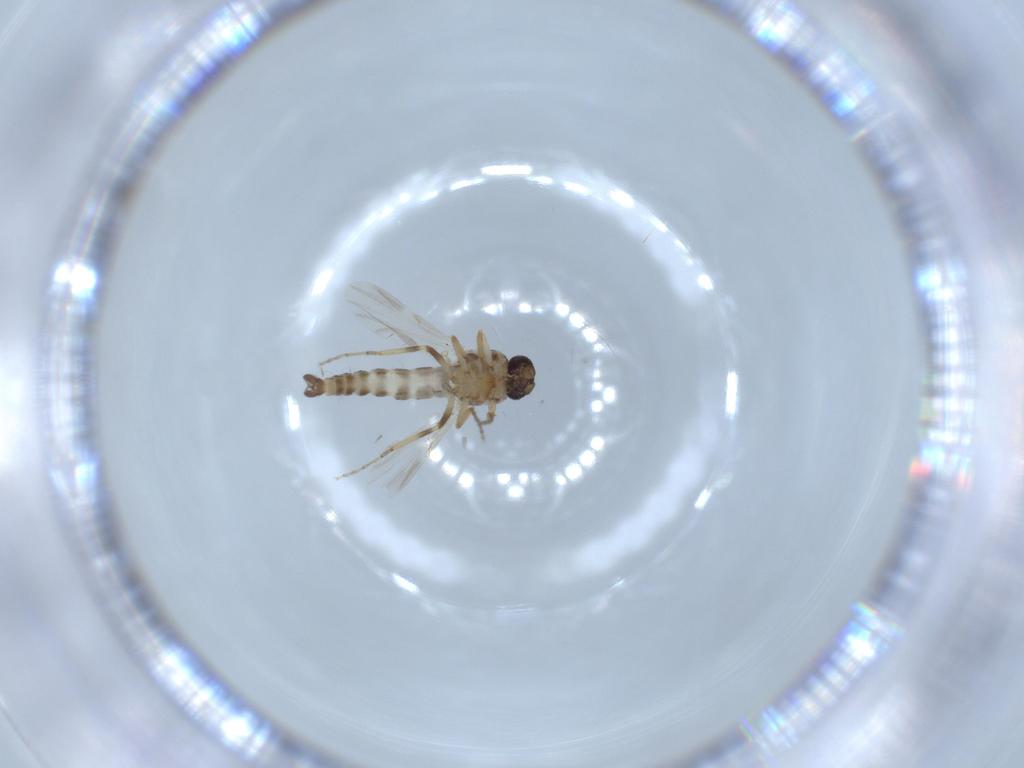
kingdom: Animalia
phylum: Arthropoda
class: Insecta
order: Diptera
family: Ceratopogonidae
